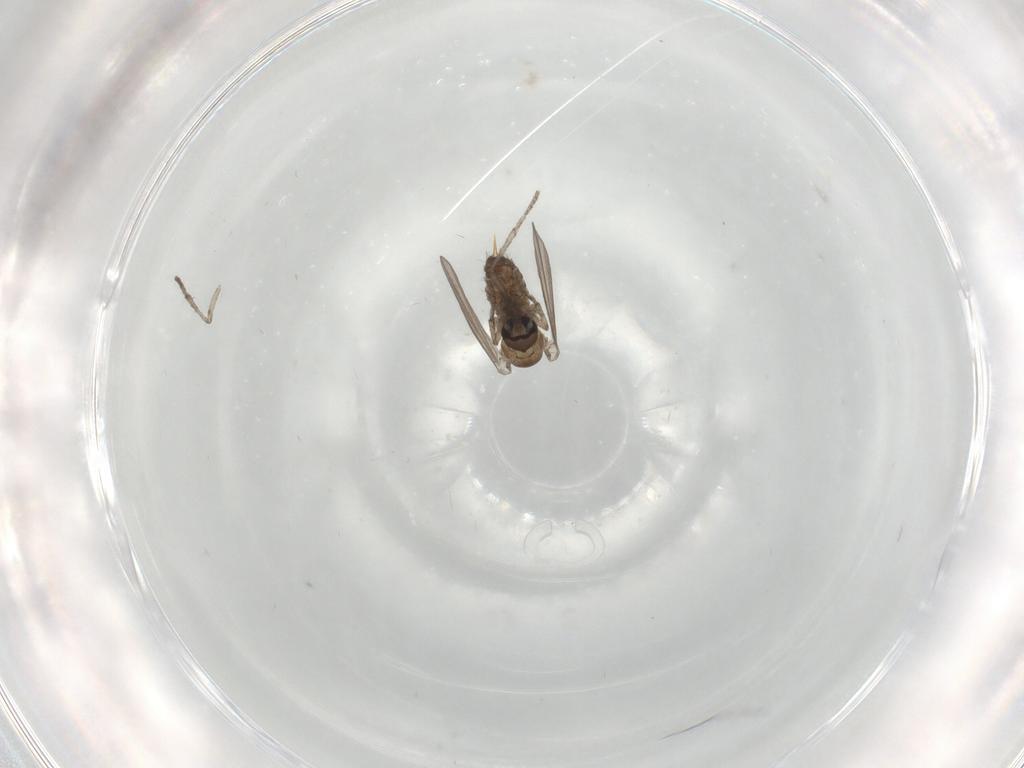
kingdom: Animalia
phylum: Arthropoda
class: Insecta
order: Diptera
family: Psychodidae
